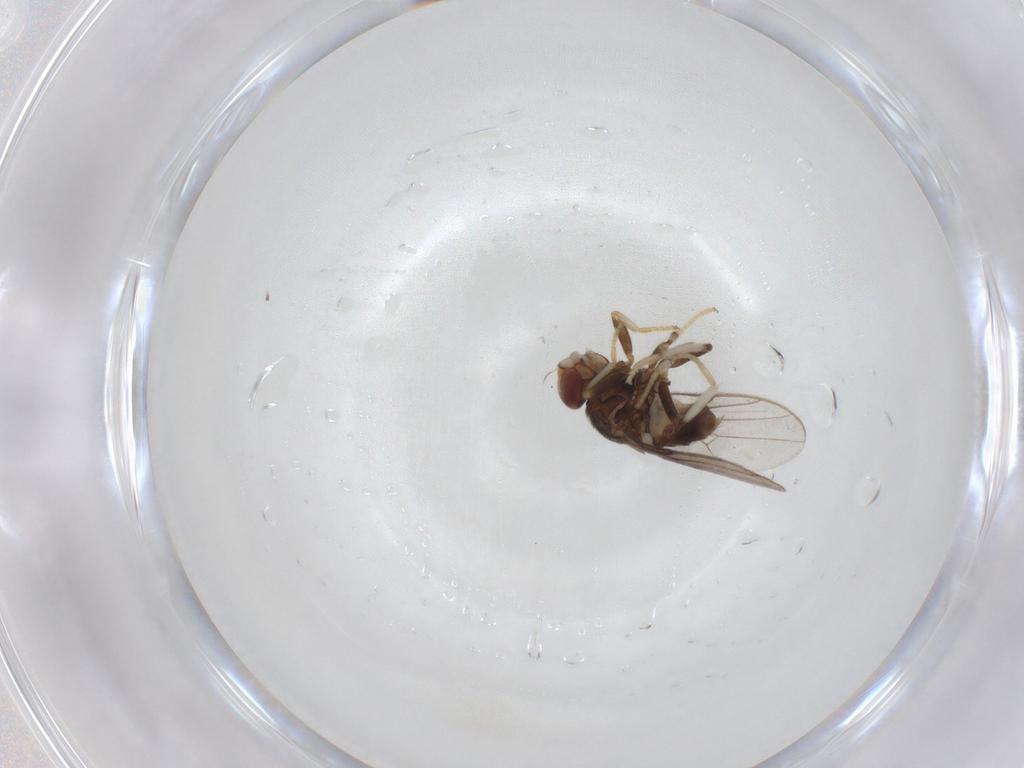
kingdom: Animalia
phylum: Arthropoda
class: Insecta
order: Diptera
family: Chloropidae
